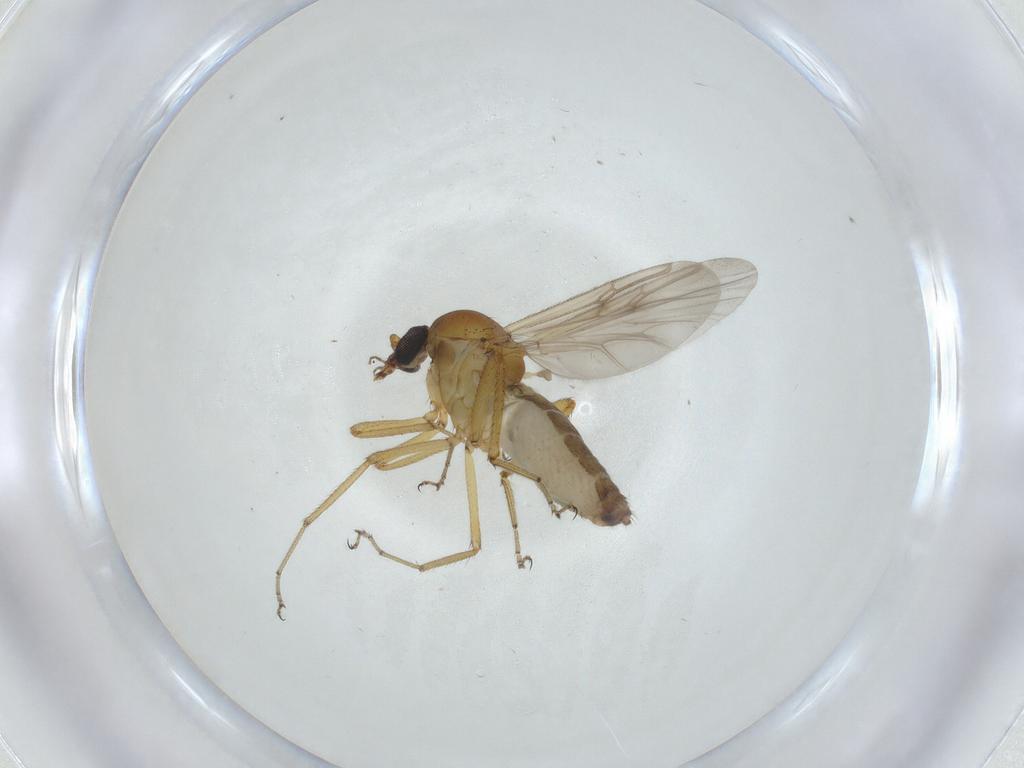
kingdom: Animalia
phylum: Arthropoda
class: Insecta
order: Diptera
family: Ceratopogonidae
